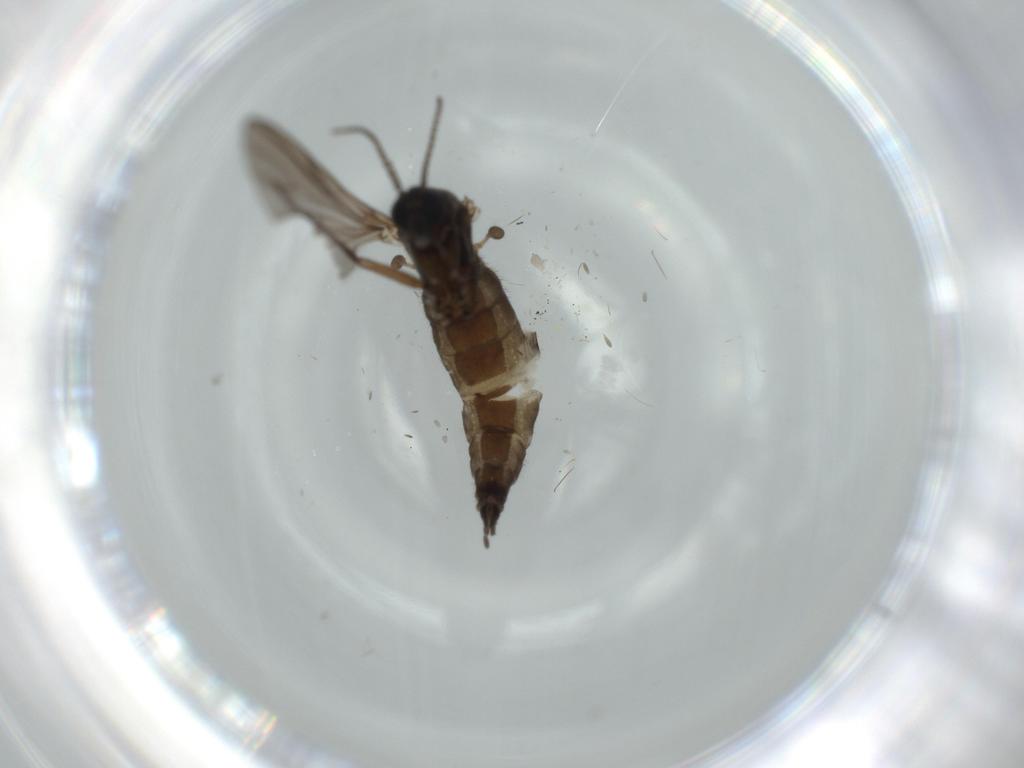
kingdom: Animalia
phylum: Arthropoda
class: Insecta
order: Diptera
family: Sciaridae
